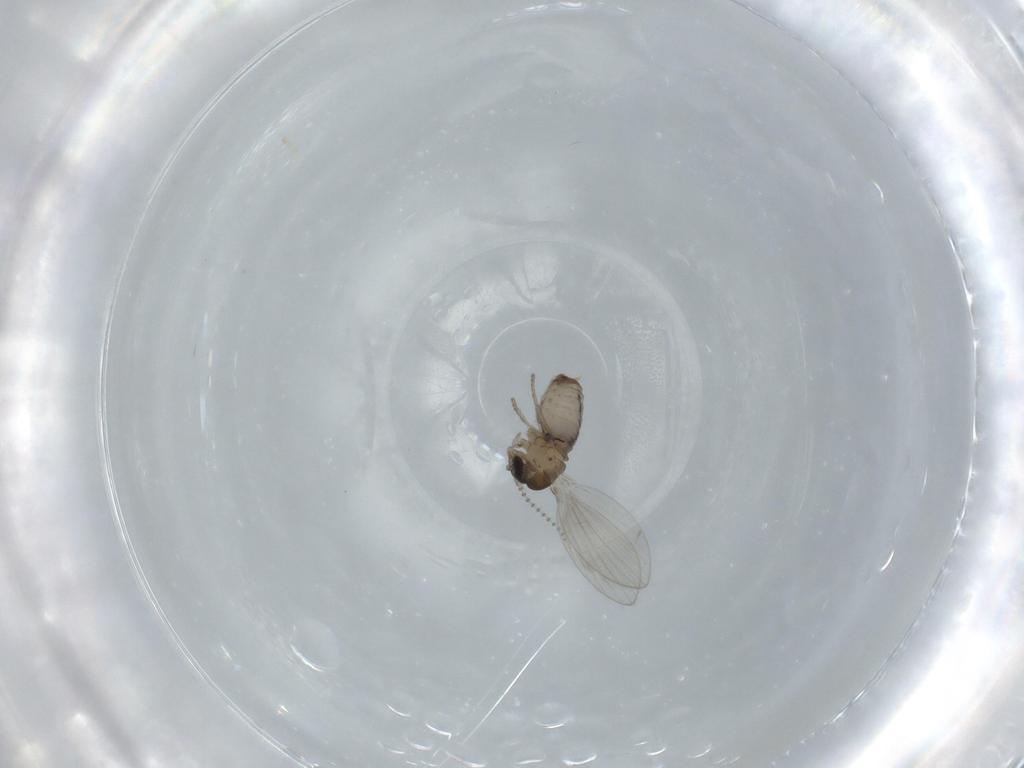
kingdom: Animalia
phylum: Arthropoda
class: Insecta
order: Diptera
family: Psychodidae
